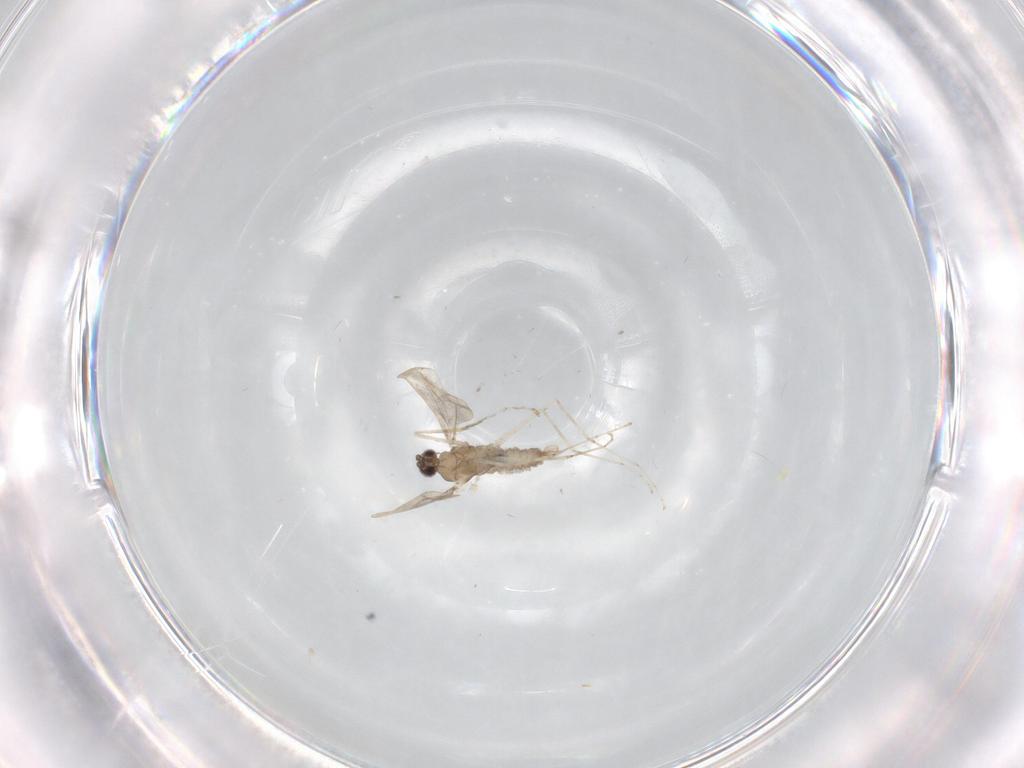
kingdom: Animalia
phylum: Arthropoda
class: Insecta
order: Diptera
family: Cecidomyiidae
